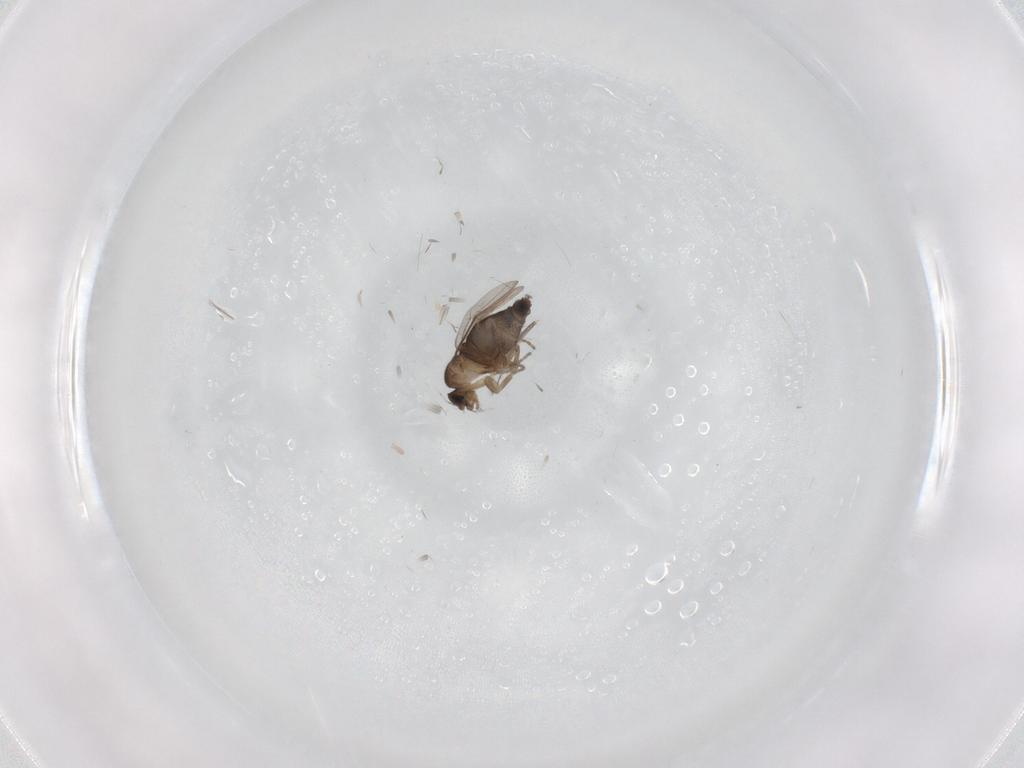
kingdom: Animalia
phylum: Arthropoda
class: Insecta
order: Diptera
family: Phoridae
